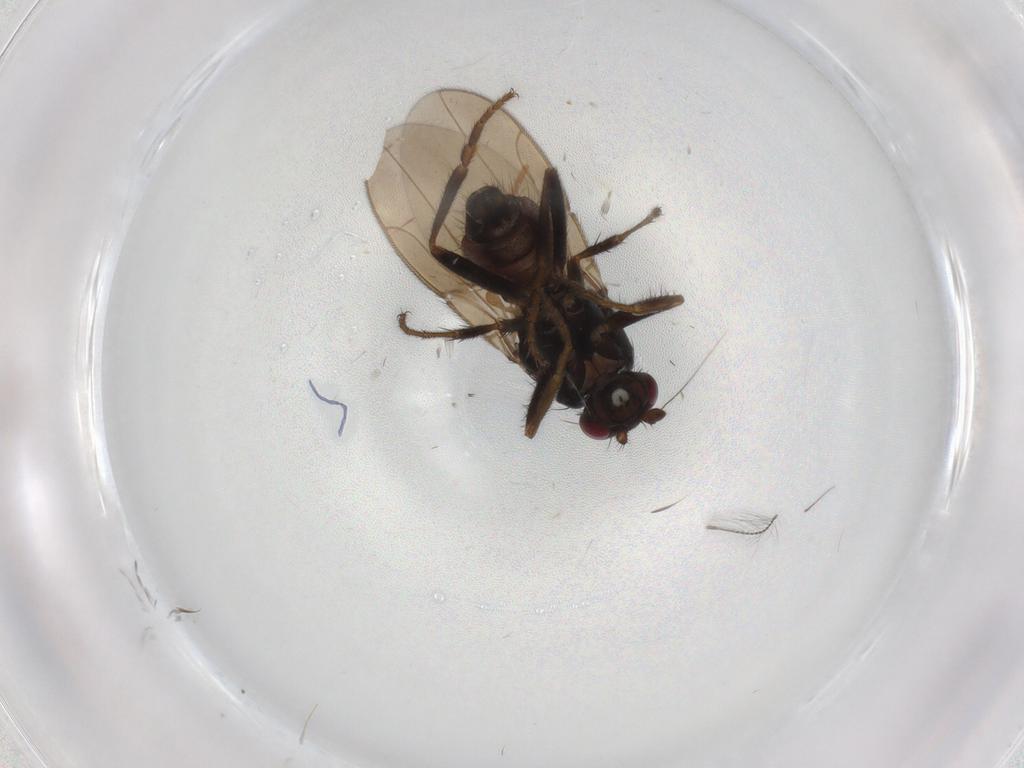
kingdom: Animalia
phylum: Arthropoda
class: Insecta
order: Diptera
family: Sphaeroceridae
